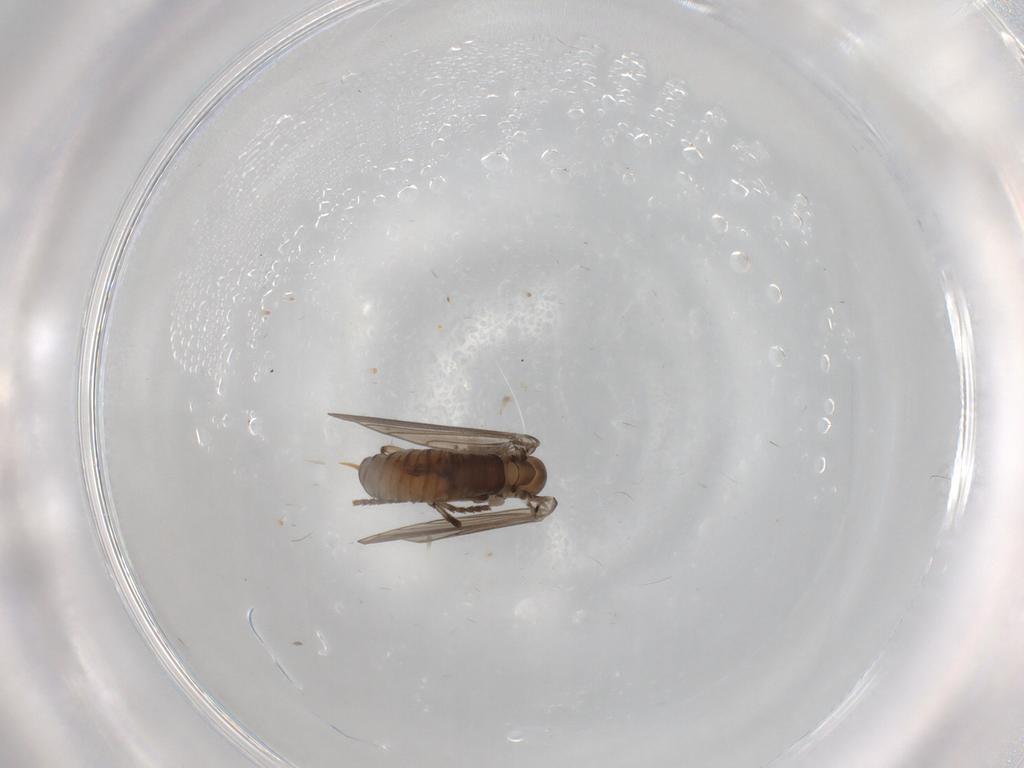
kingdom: Animalia
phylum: Arthropoda
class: Insecta
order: Diptera
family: Psychodidae
